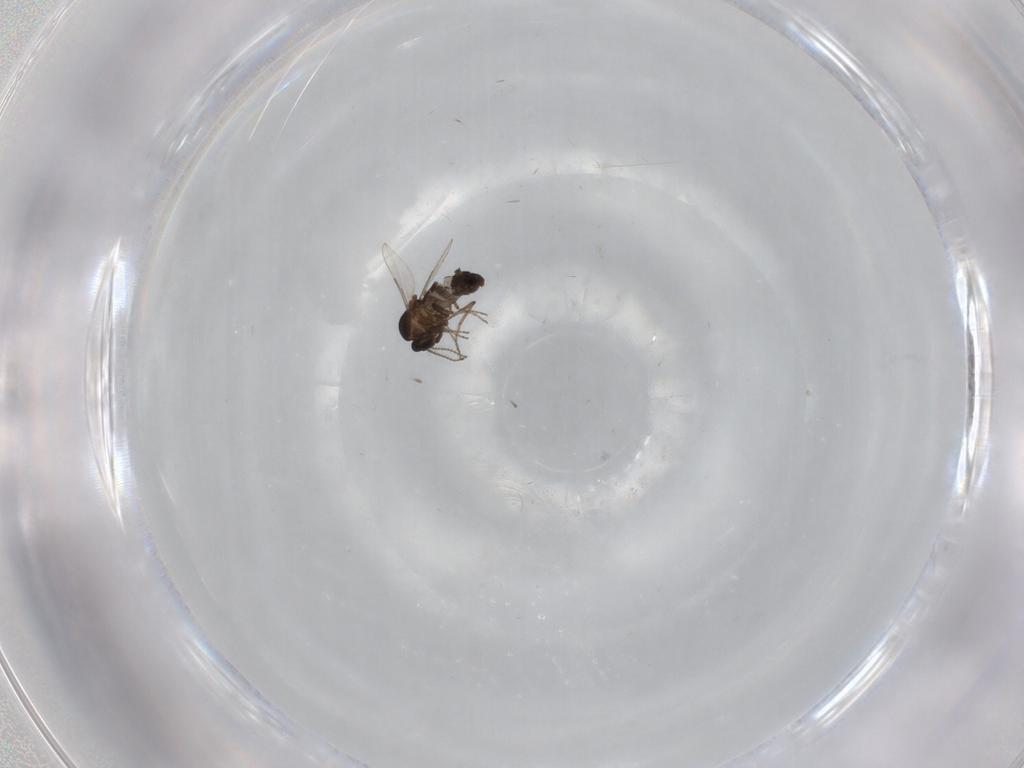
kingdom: Animalia
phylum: Arthropoda
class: Insecta
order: Diptera
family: Ceratopogonidae
